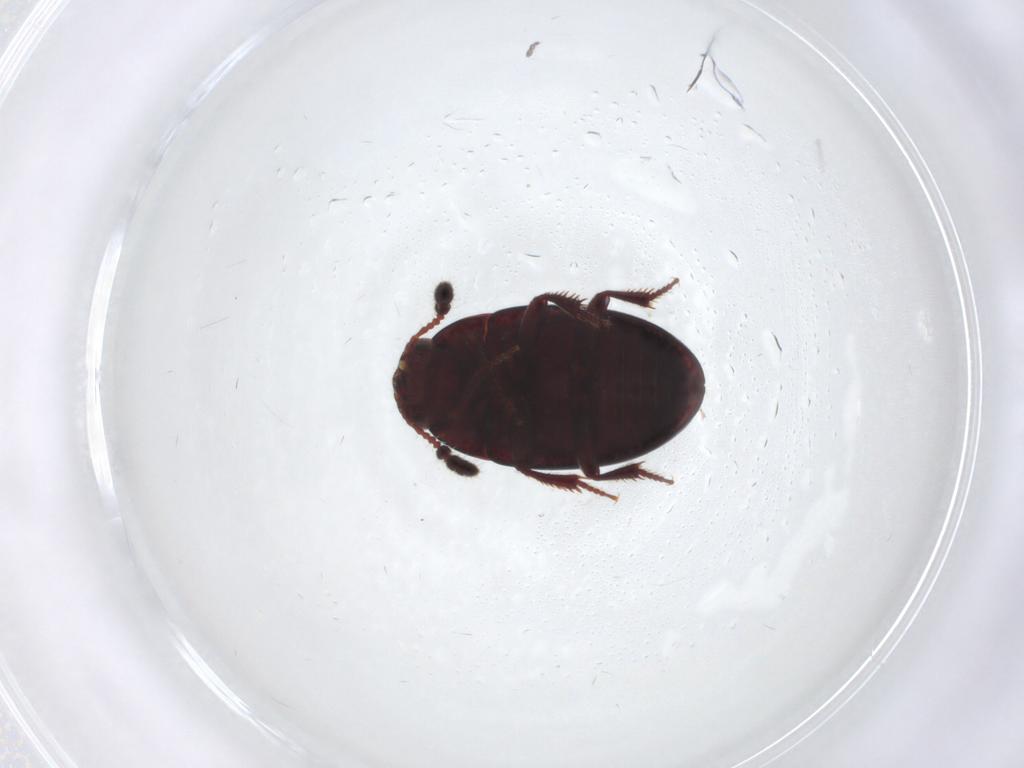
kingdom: Animalia
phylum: Arthropoda
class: Insecta
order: Coleoptera
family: Leiodidae
